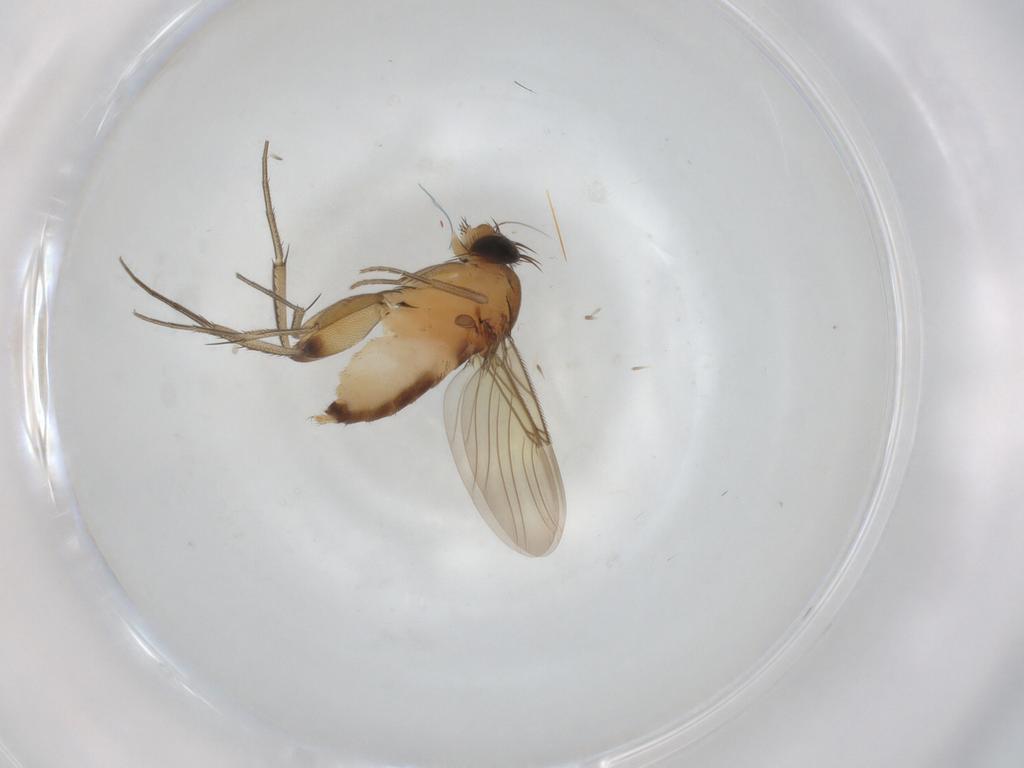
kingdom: Animalia
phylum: Arthropoda
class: Insecta
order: Diptera
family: Phoridae
